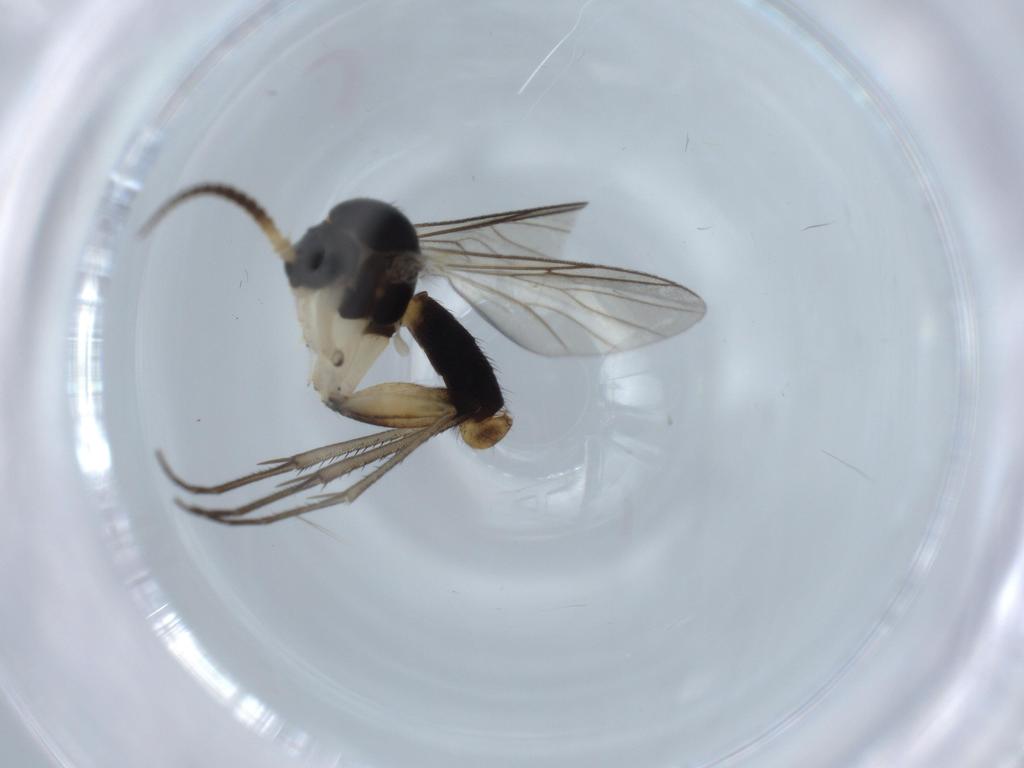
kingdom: Animalia
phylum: Arthropoda
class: Insecta
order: Diptera
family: Mycetophilidae
